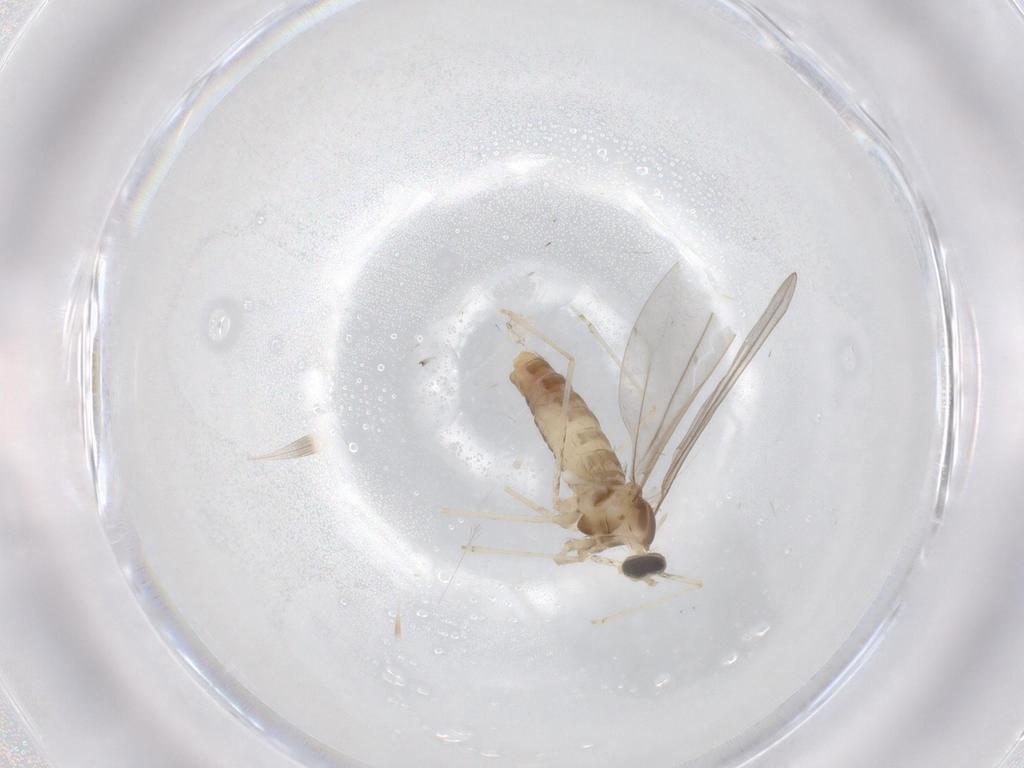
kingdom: Animalia
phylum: Arthropoda
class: Insecta
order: Diptera
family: Cecidomyiidae
